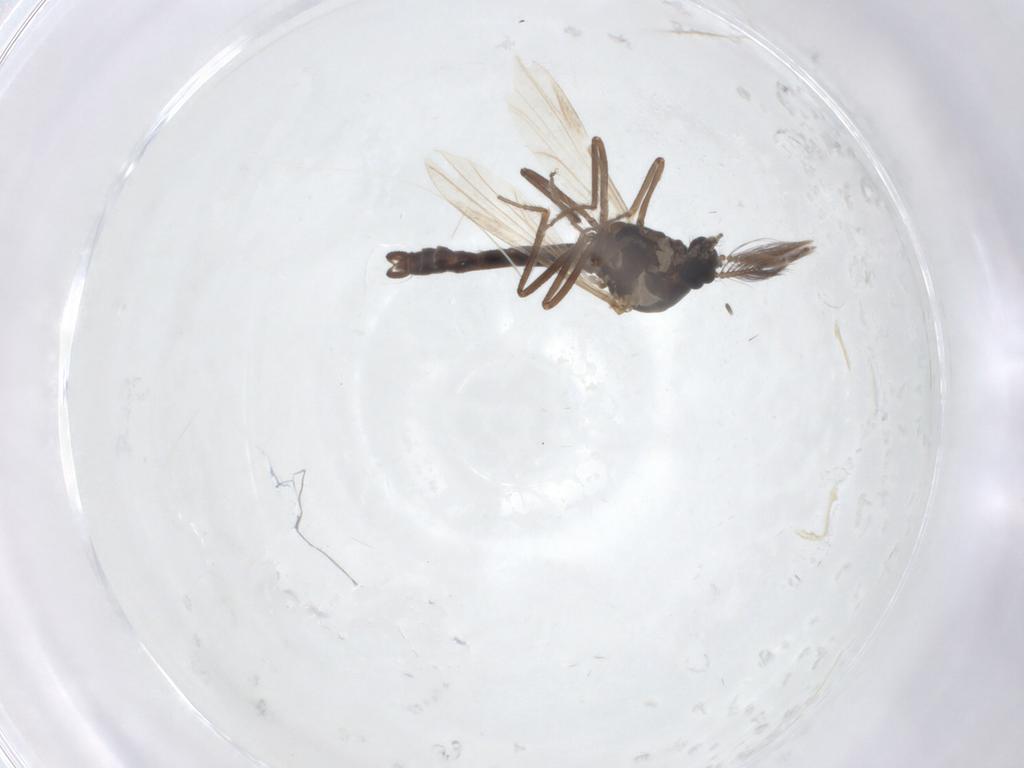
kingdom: Animalia
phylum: Arthropoda
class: Insecta
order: Diptera
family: Ceratopogonidae
